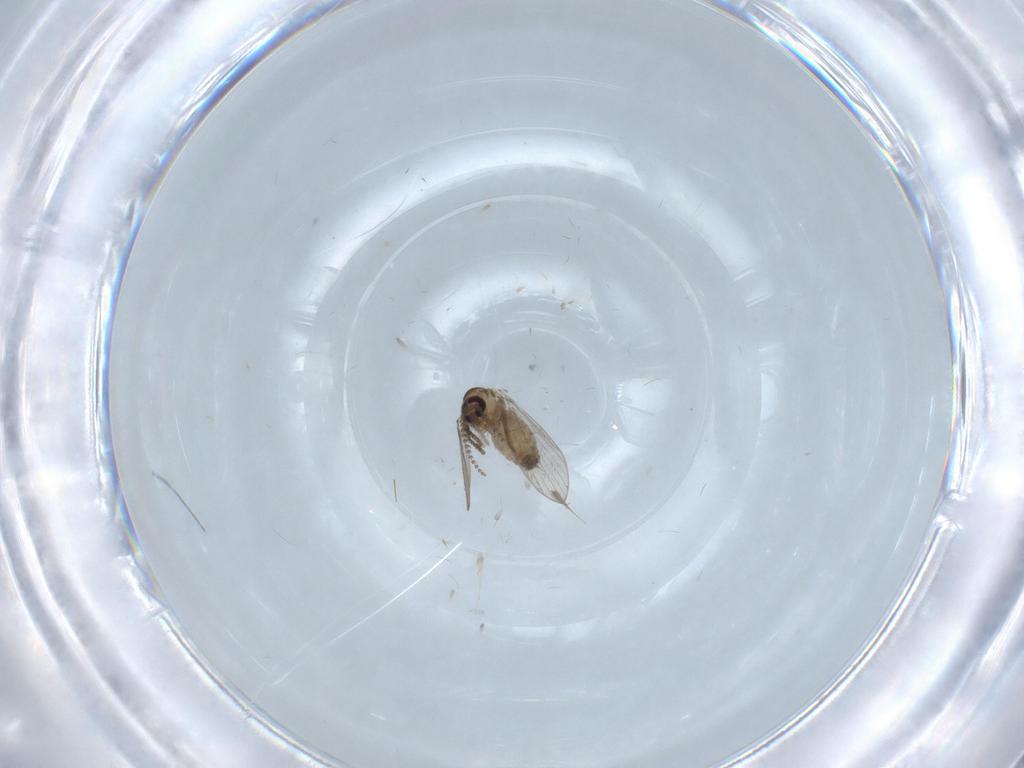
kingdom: Animalia
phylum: Arthropoda
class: Insecta
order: Diptera
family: Psychodidae
